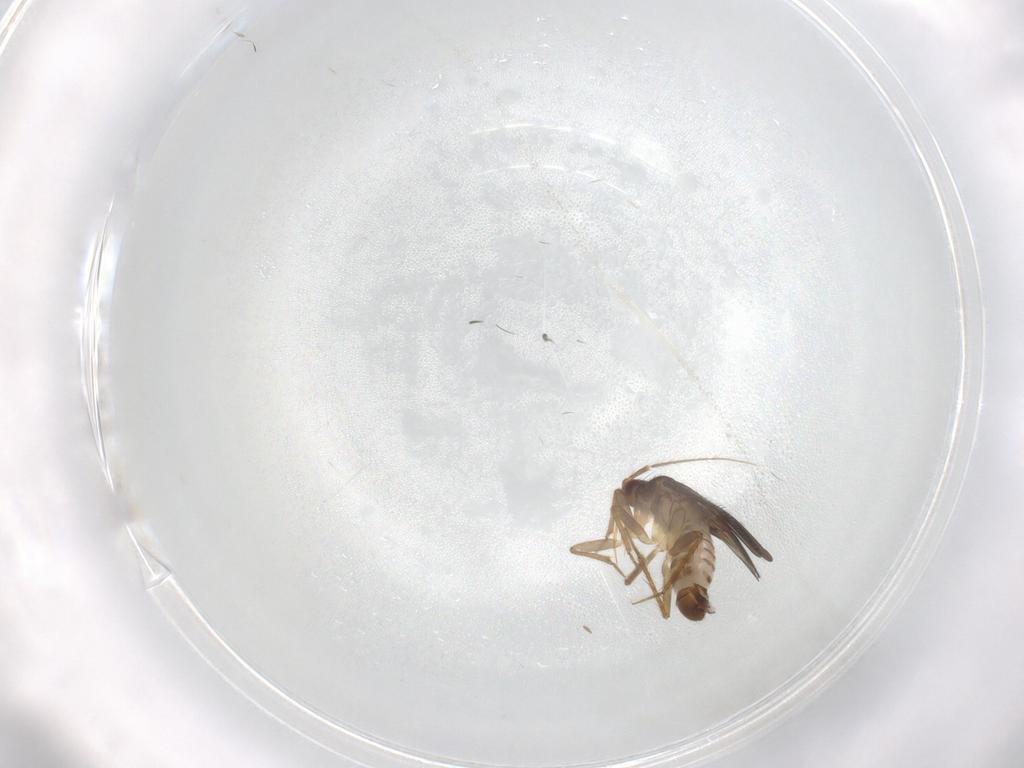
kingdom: Animalia
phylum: Arthropoda
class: Insecta
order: Hemiptera
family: Ceratocombidae
